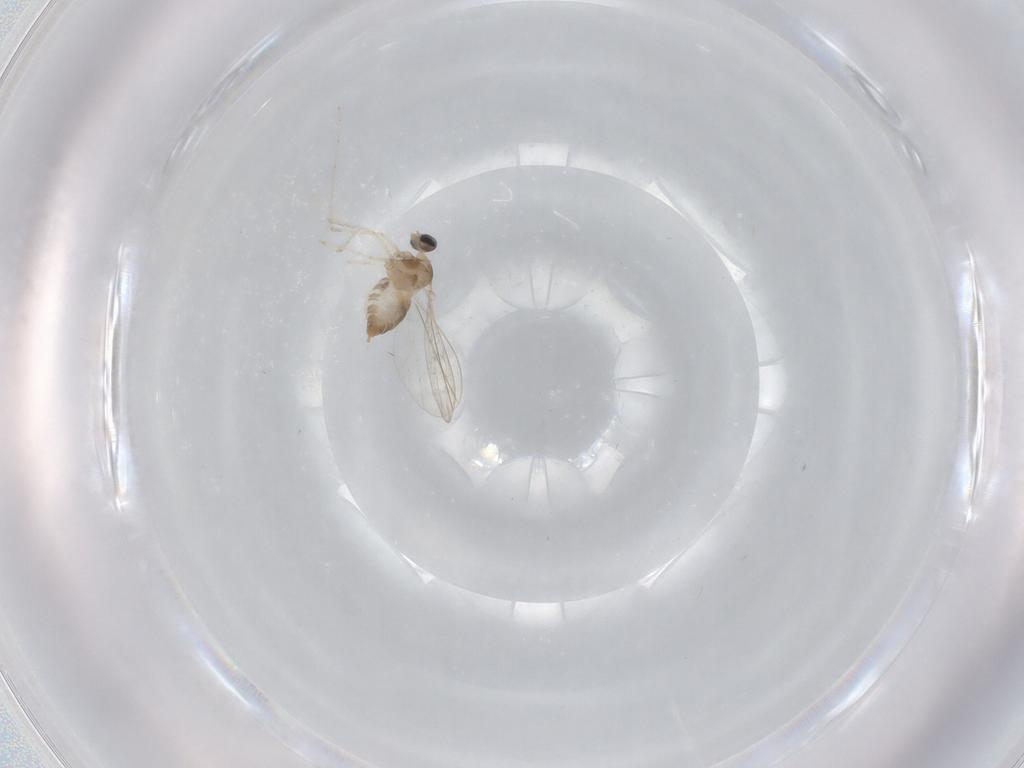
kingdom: Animalia
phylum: Arthropoda
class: Insecta
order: Diptera
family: Cecidomyiidae
